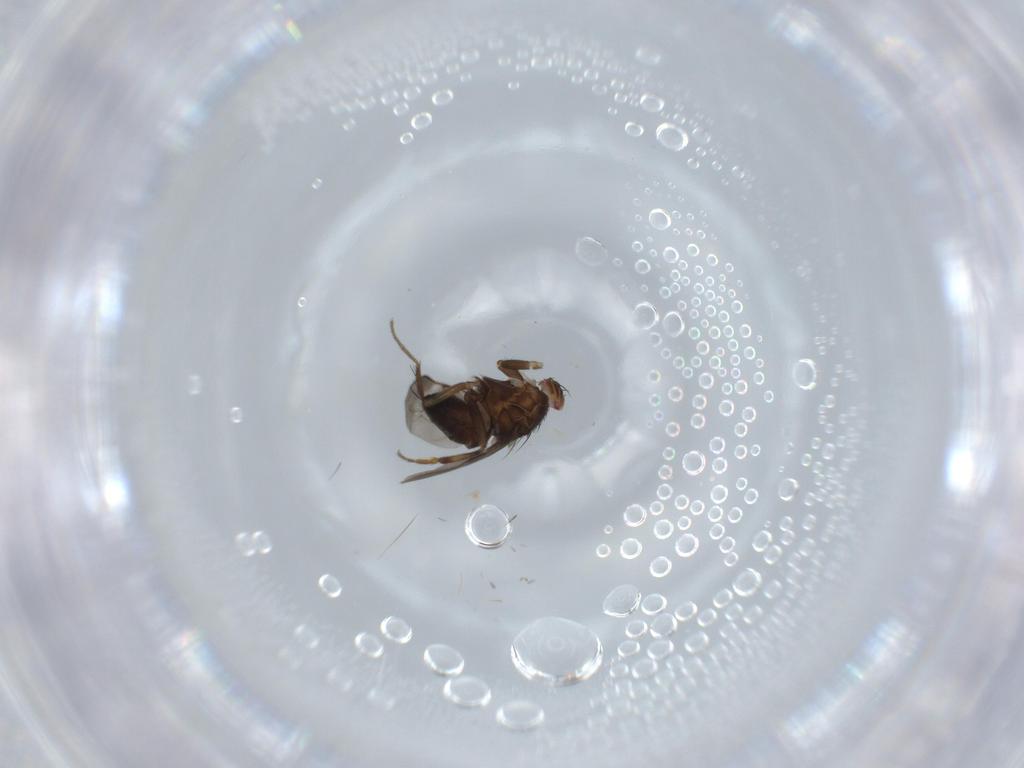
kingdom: Animalia
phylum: Arthropoda
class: Insecta
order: Diptera
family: Sphaeroceridae
